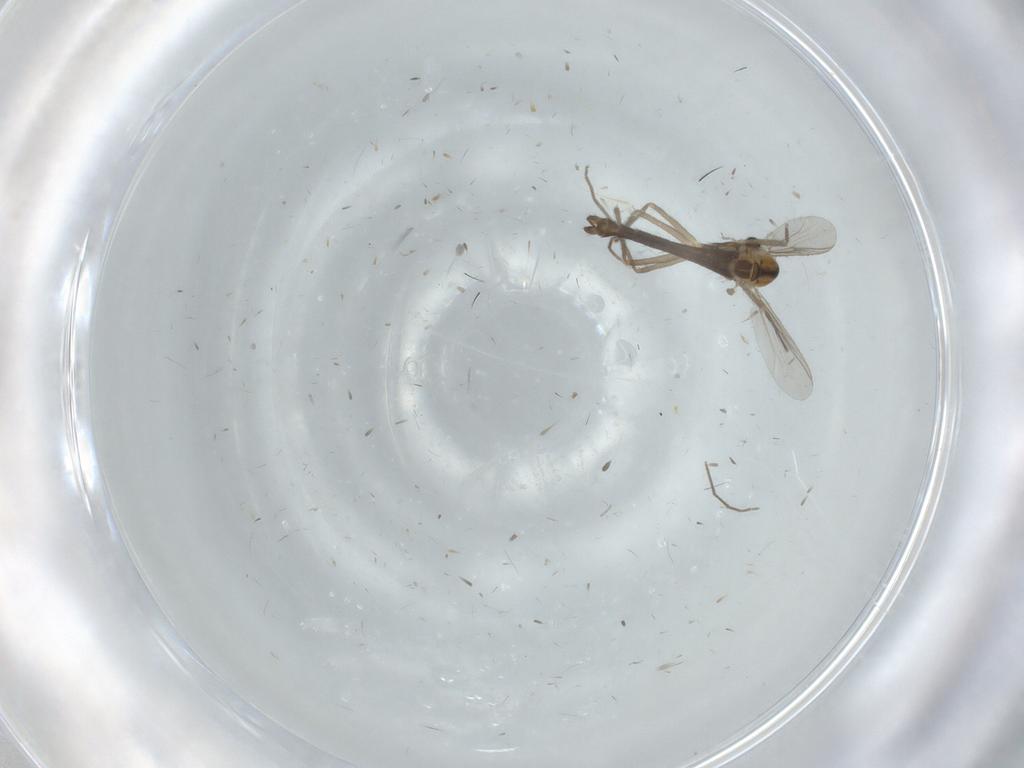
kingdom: Animalia
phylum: Arthropoda
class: Insecta
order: Diptera
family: Chironomidae
